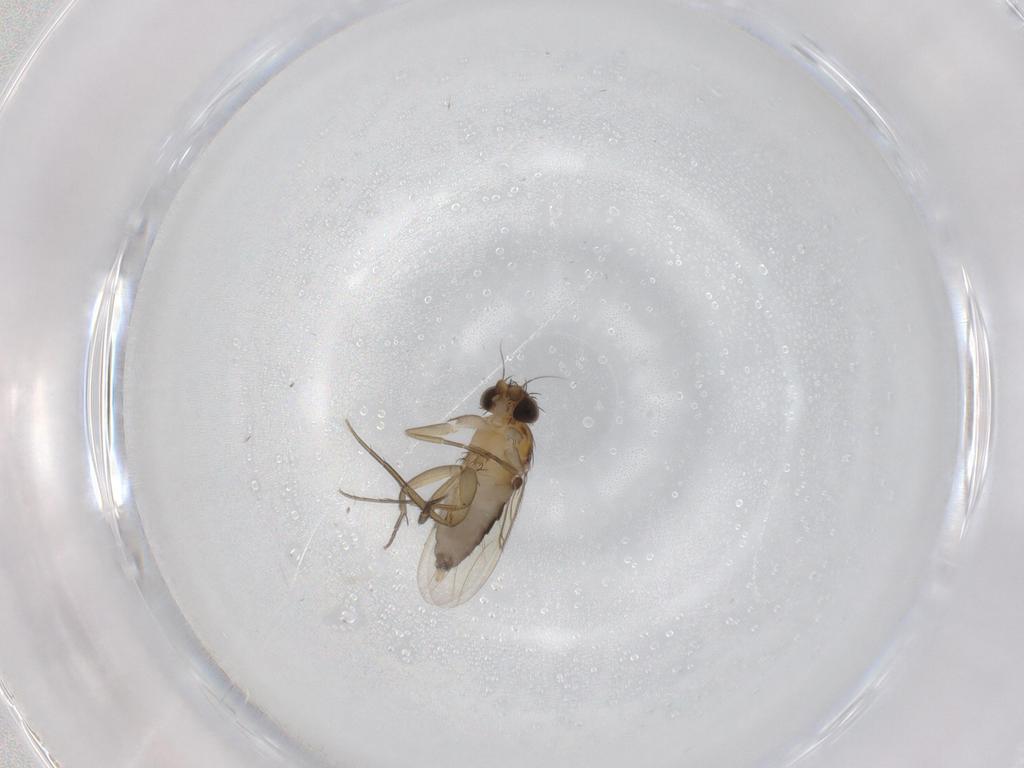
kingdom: Animalia
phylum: Arthropoda
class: Insecta
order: Diptera
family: Phoridae
